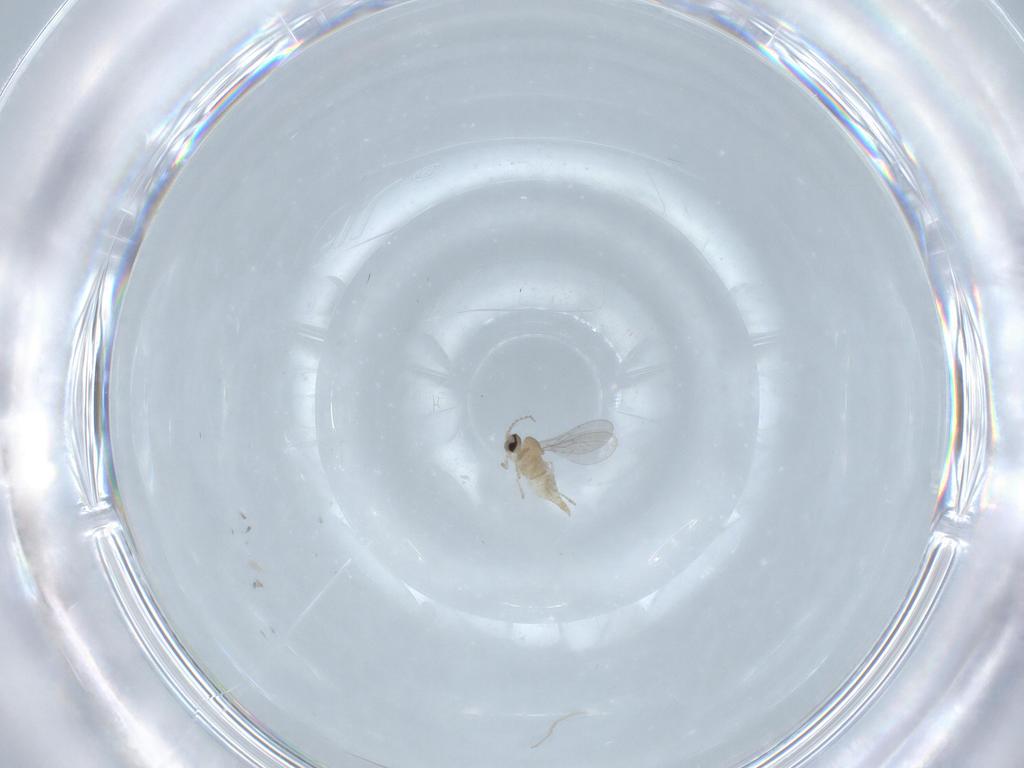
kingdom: Animalia
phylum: Arthropoda
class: Insecta
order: Diptera
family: Cecidomyiidae
